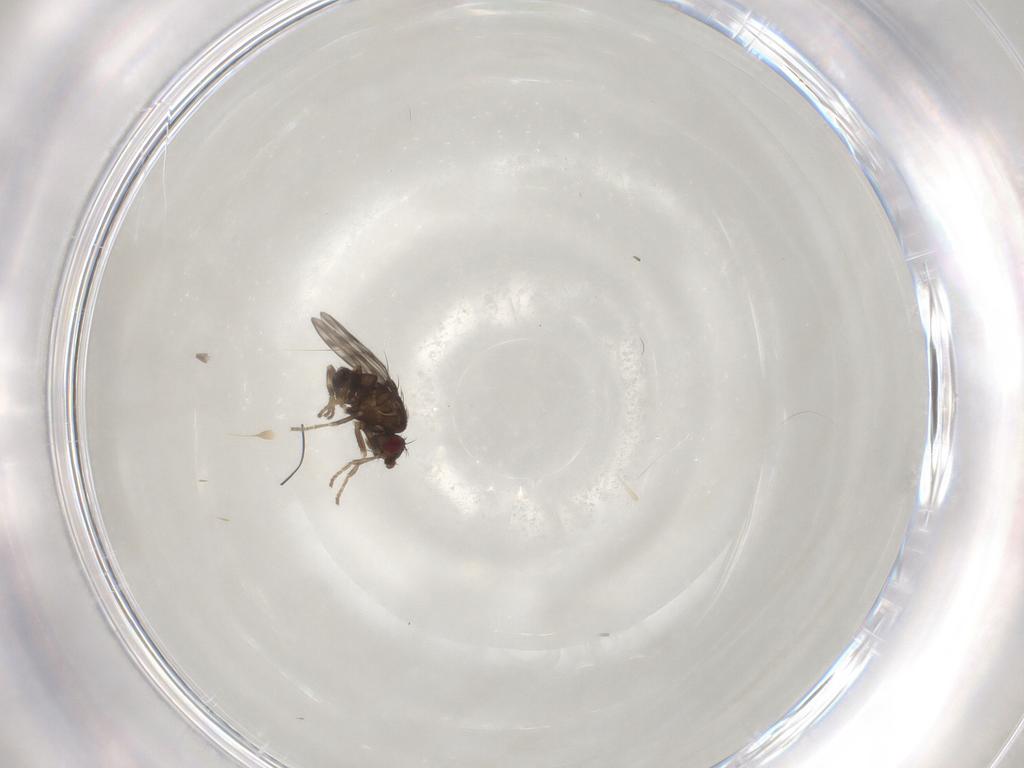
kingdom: Animalia
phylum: Arthropoda
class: Insecta
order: Diptera
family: Sphaeroceridae
